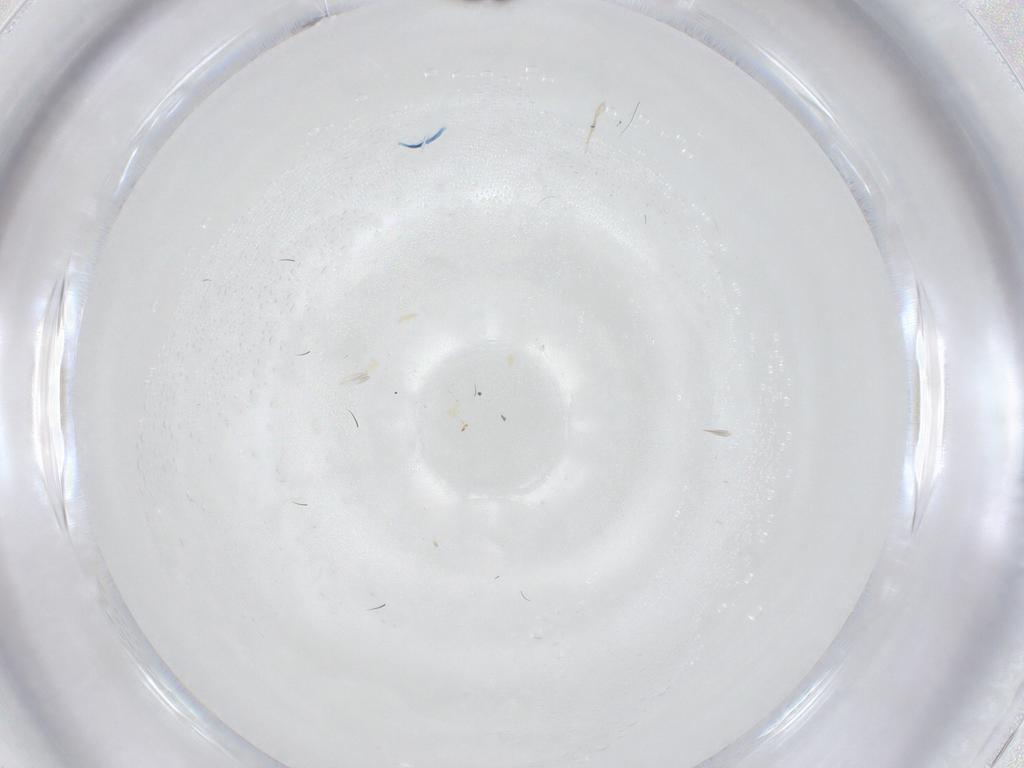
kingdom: Animalia
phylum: Arthropoda
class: Insecta
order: Diptera
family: Cecidomyiidae
